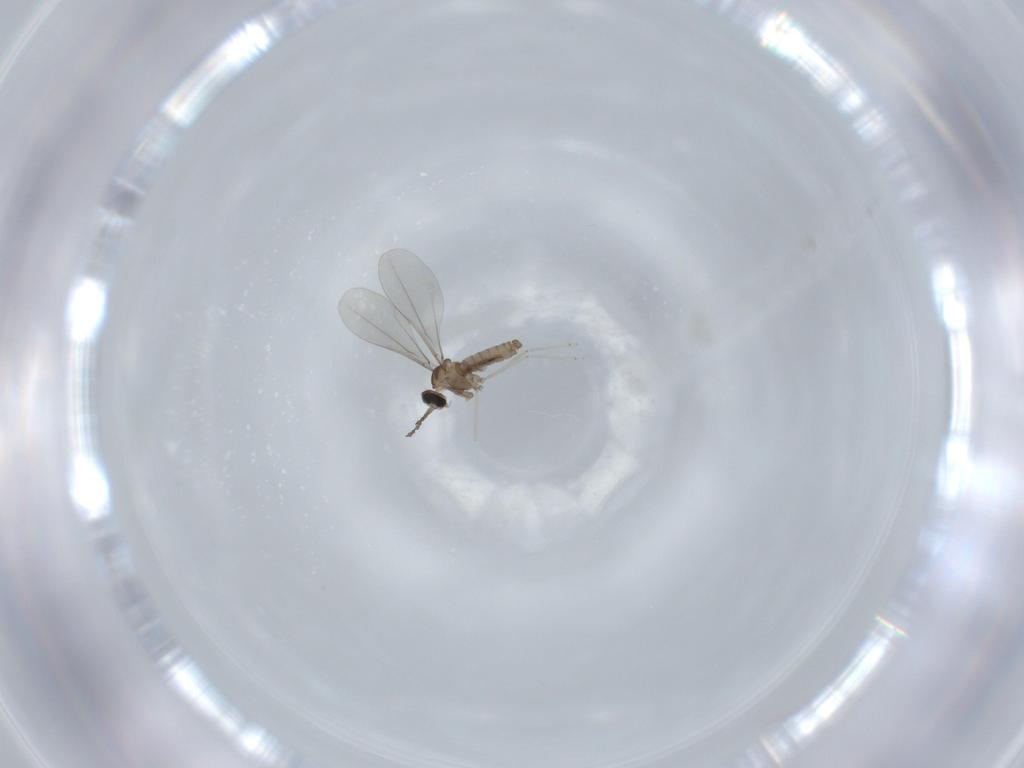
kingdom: Animalia
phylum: Arthropoda
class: Insecta
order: Diptera
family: Cecidomyiidae
